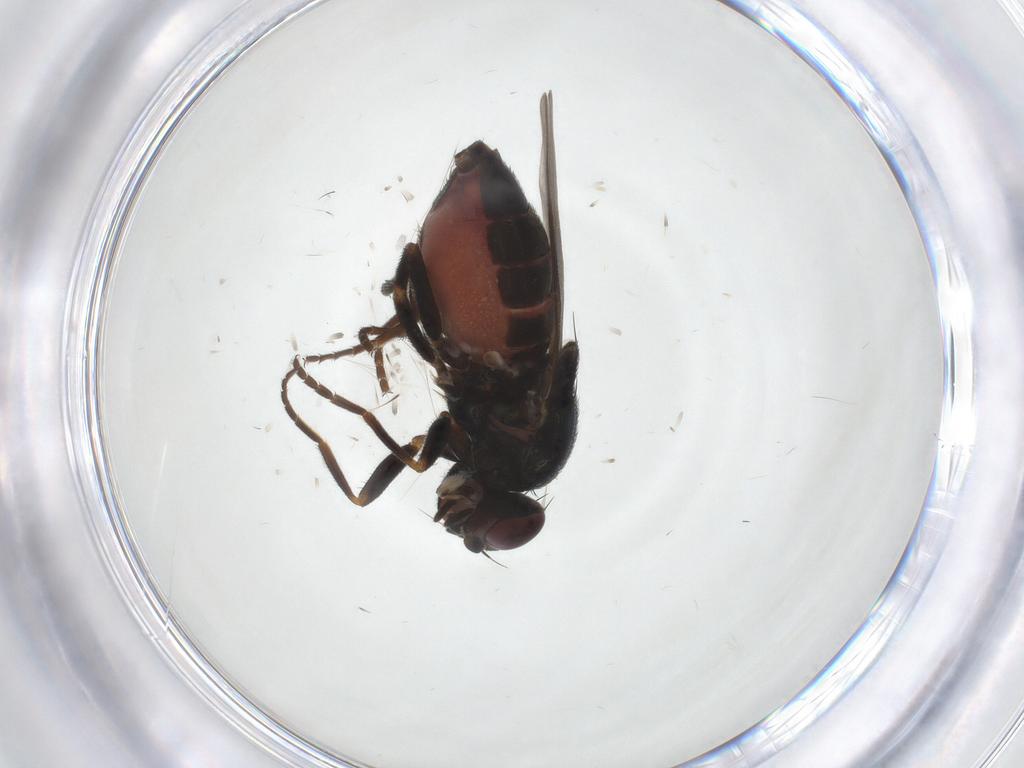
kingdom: Animalia
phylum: Arthropoda
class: Insecta
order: Diptera
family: Chloropidae
